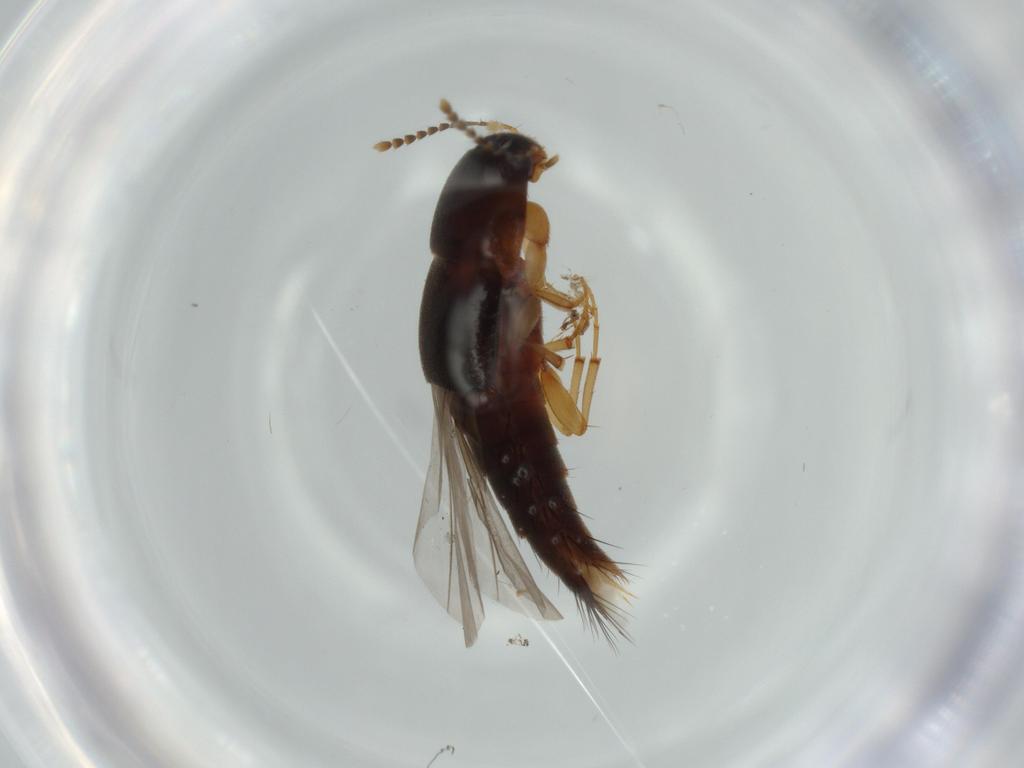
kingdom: Animalia
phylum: Arthropoda
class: Insecta
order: Coleoptera
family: Staphylinidae
